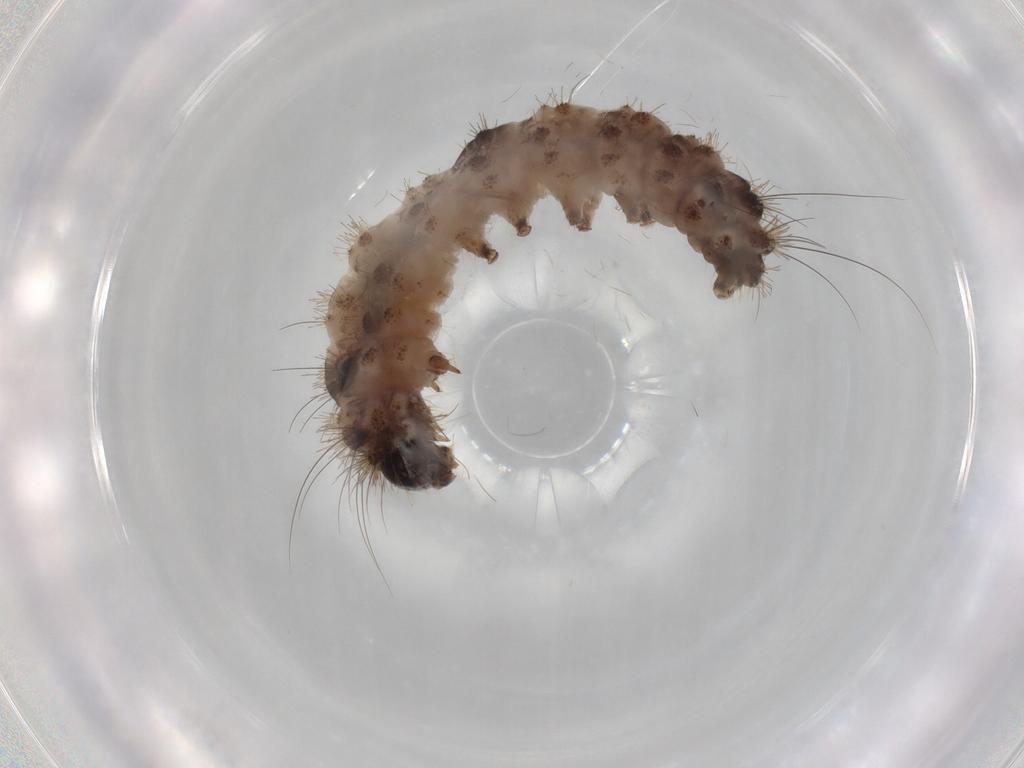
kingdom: Animalia
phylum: Arthropoda
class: Insecta
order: Lepidoptera
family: Erebidae
